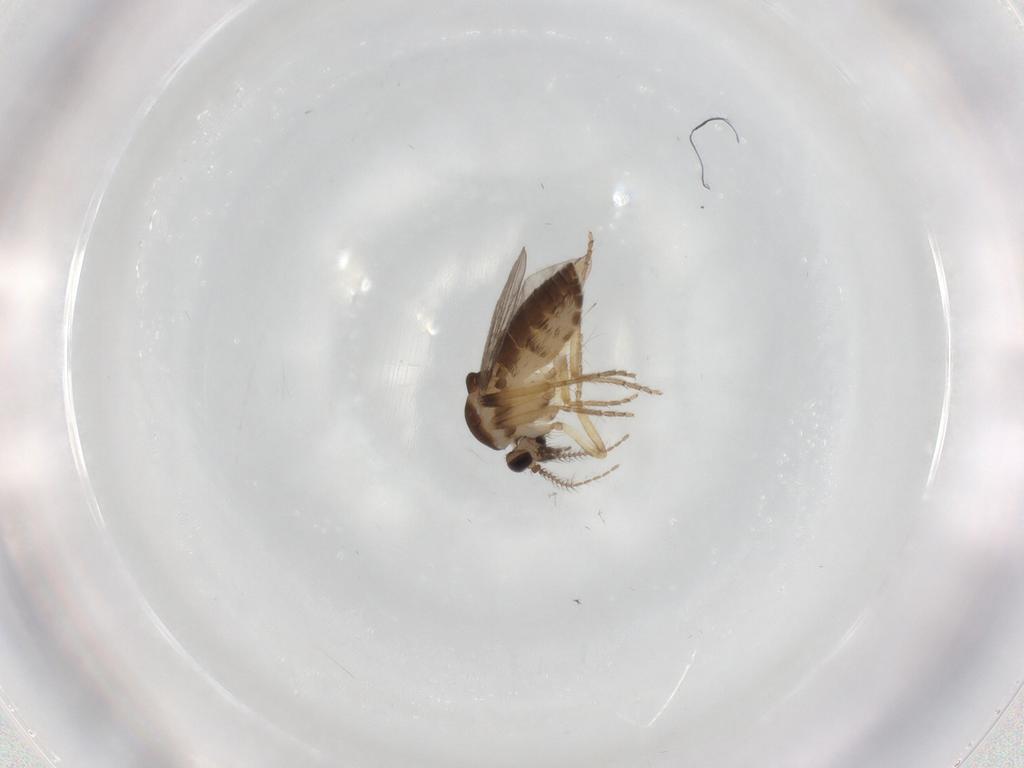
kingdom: Animalia
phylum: Arthropoda
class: Insecta
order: Diptera
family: Ceratopogonidae
